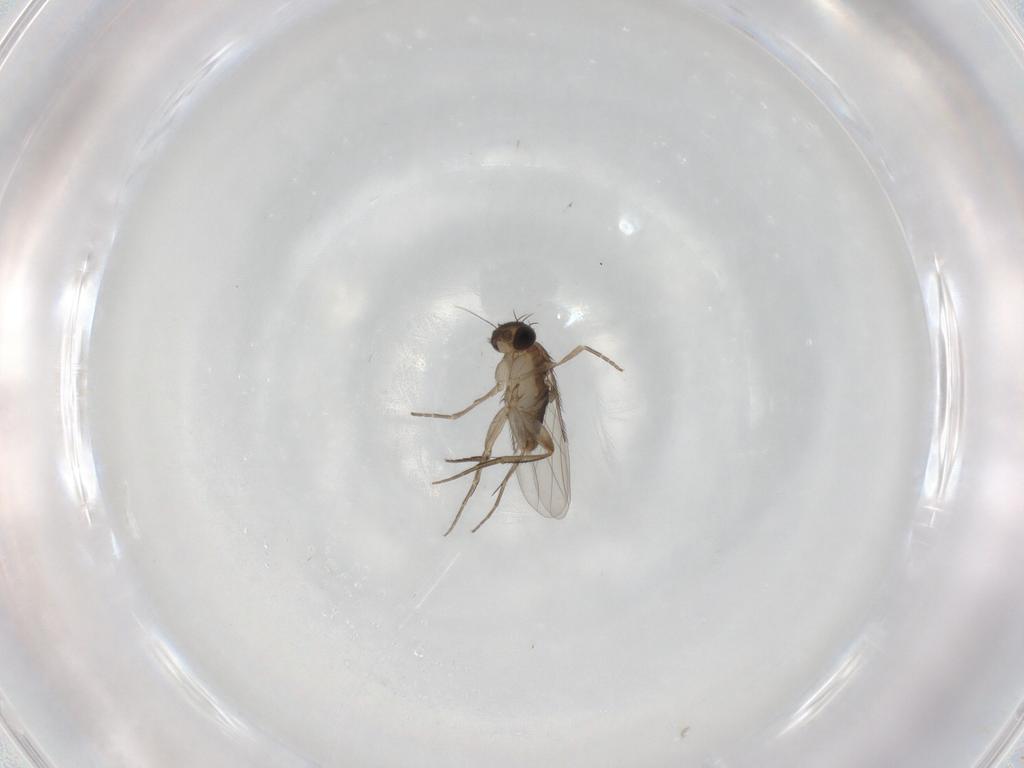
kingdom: Animalia
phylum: Arthropoda
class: Insecta
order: Diptera
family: Phoridae
